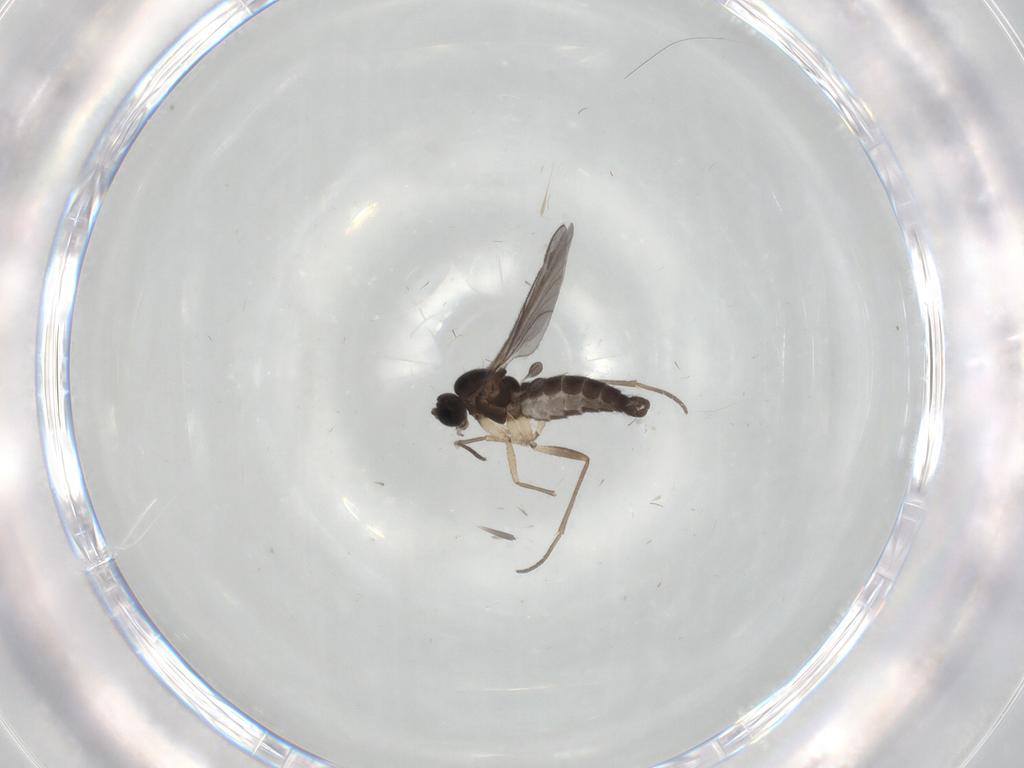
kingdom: Animalia
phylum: Arthropoda
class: Insecta
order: Diptera
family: Sciaridae
